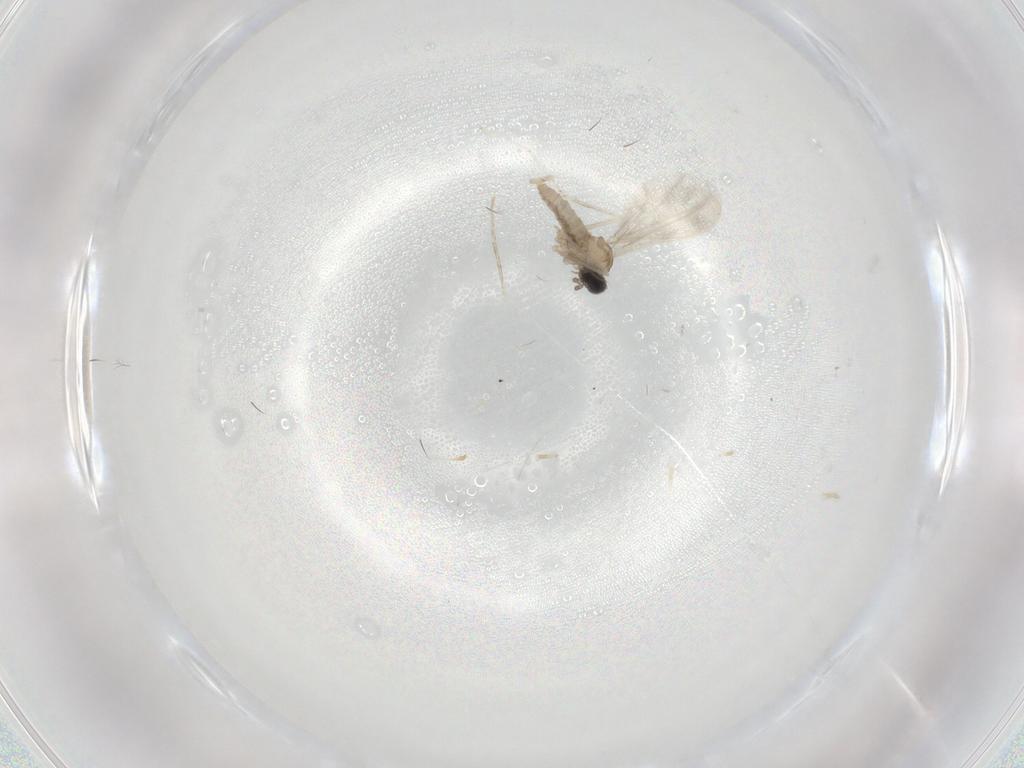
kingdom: Animalia
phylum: Arthropoda
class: Insecta
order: Diptera
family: Cecidomyiidae
